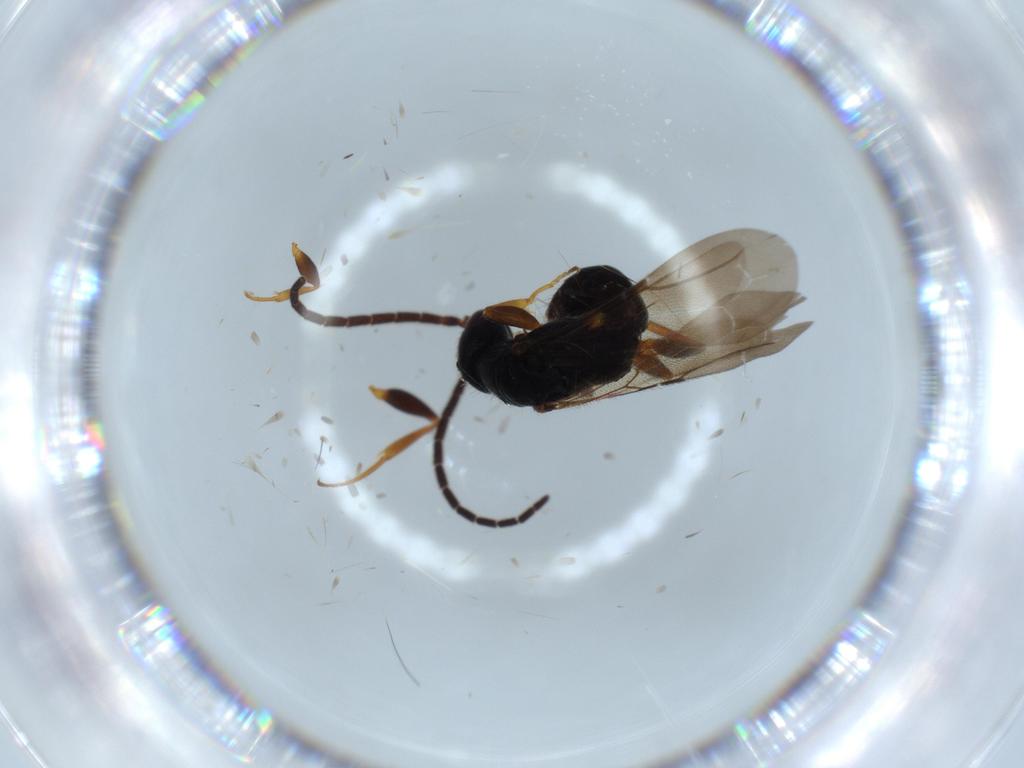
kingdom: Animalia
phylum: Arthropoda
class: Insecta
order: Hymenoptera
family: Bethylidae
